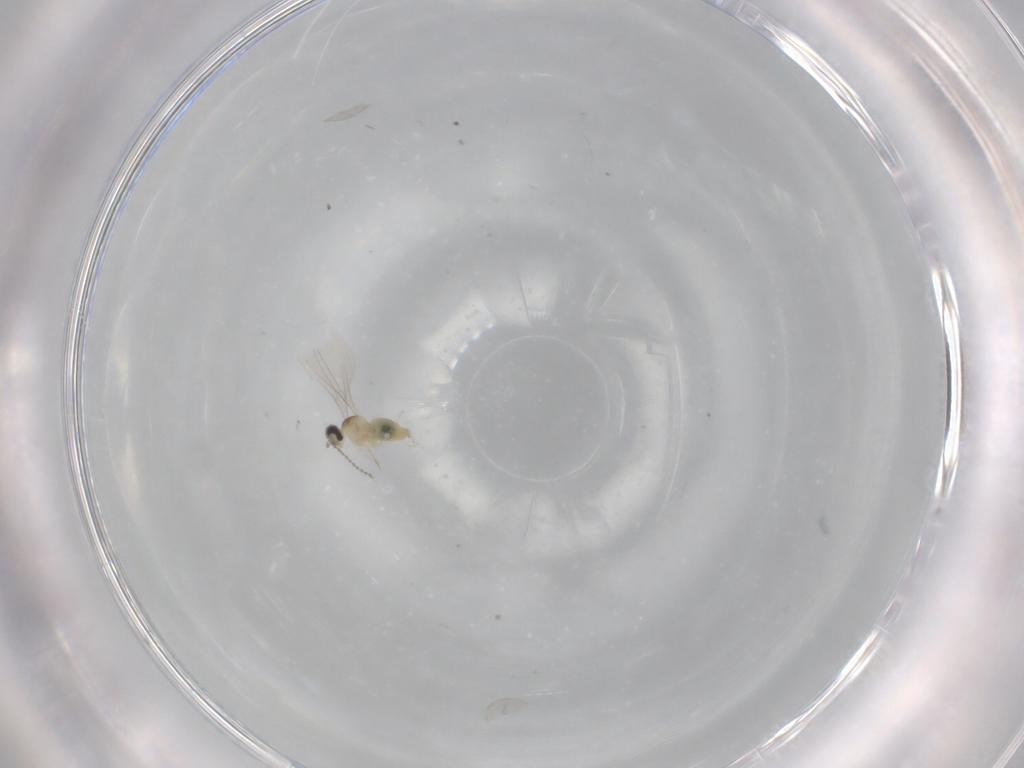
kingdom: Animalia
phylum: Arthropoda
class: Insecta
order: Diptera
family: Cecidomyiidae
